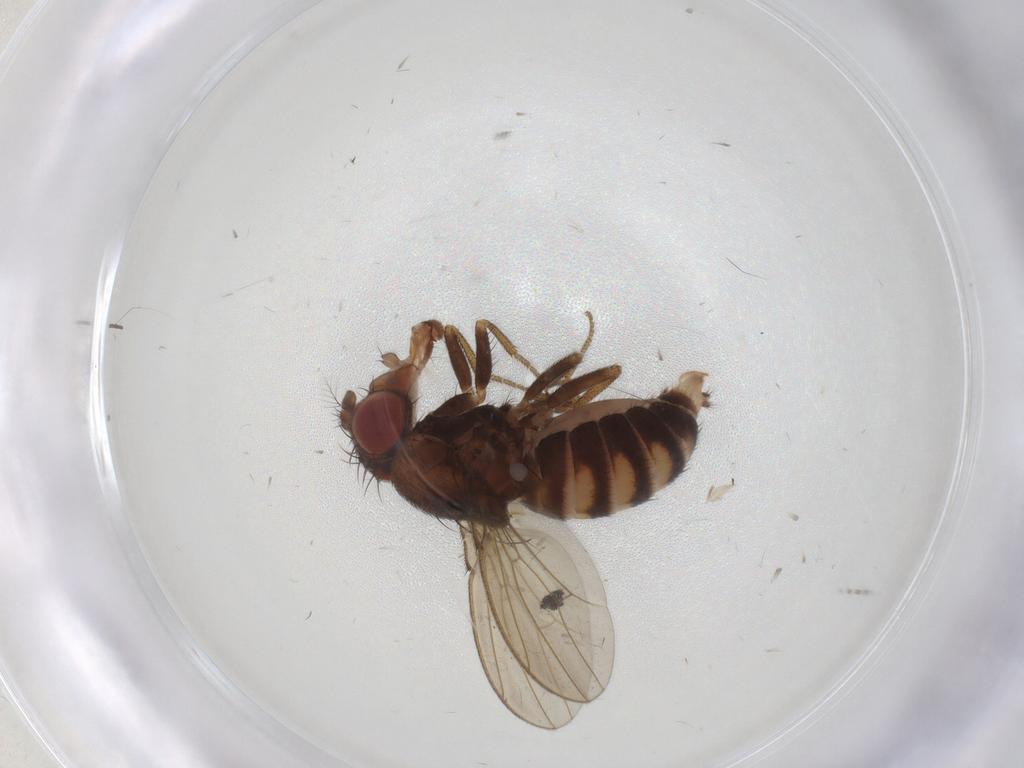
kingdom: Animalia
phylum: Arthropoda
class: Insecta
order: Diptera
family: Cecidomyiidae
